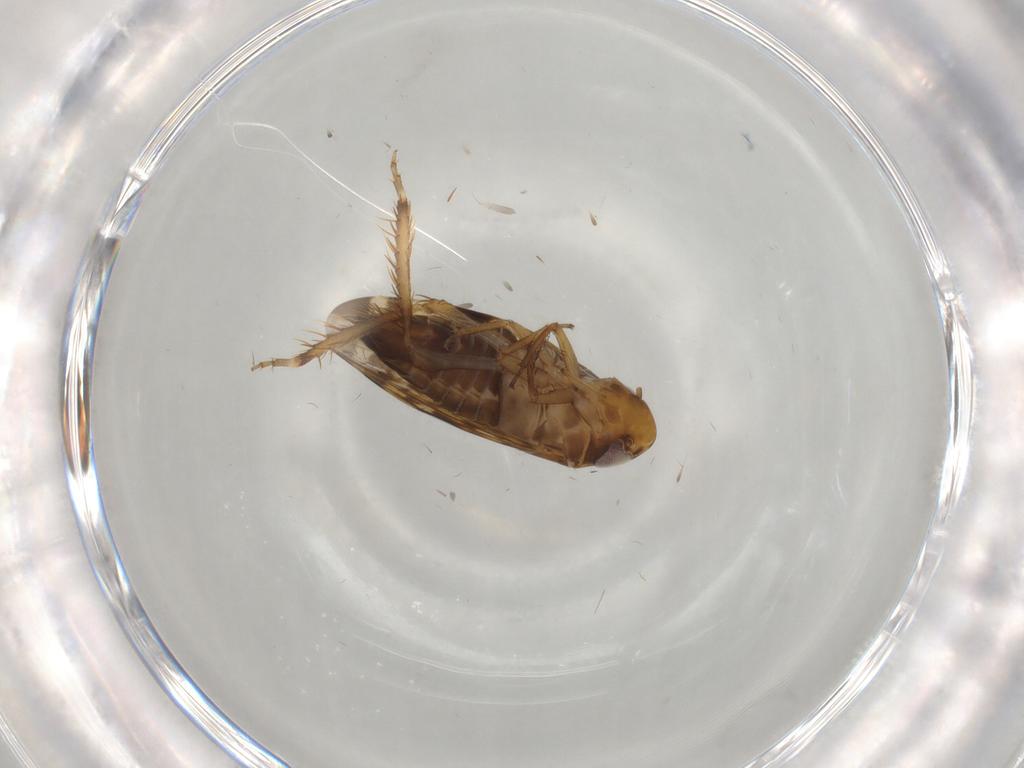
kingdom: Animalia
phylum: Arthropoda
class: Insecta
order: Hemiptera
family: Cicadellidae
